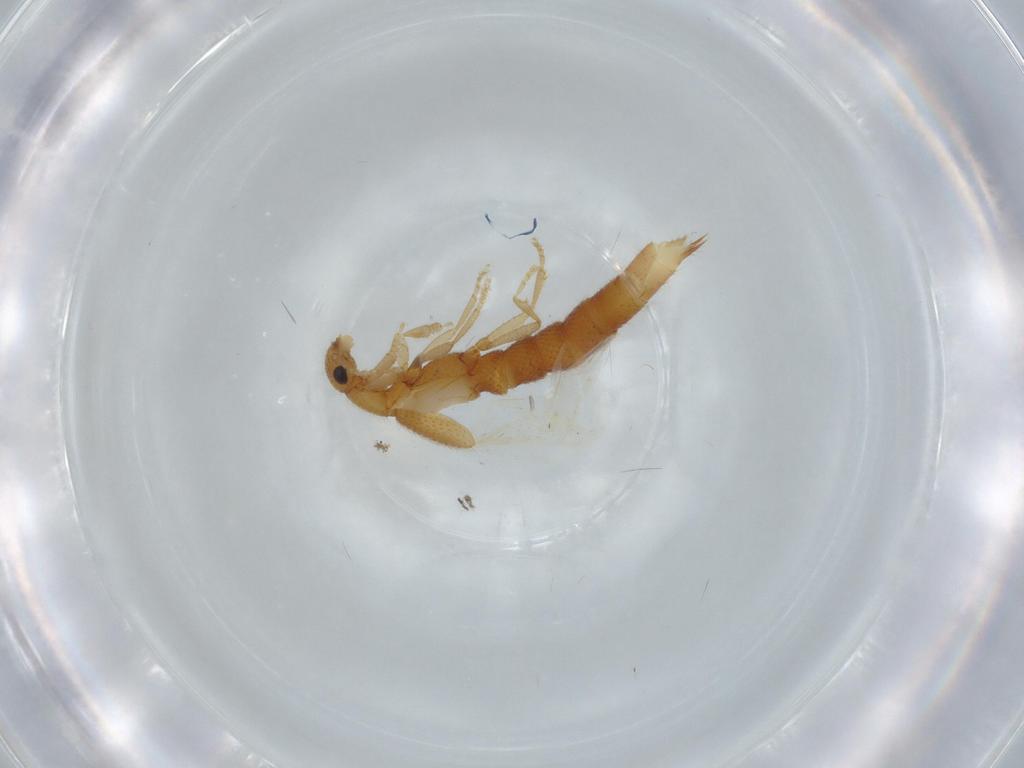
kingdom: Animalia
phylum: Arthropoda
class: Insecta
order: Coleoptera
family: Staphylinidae
